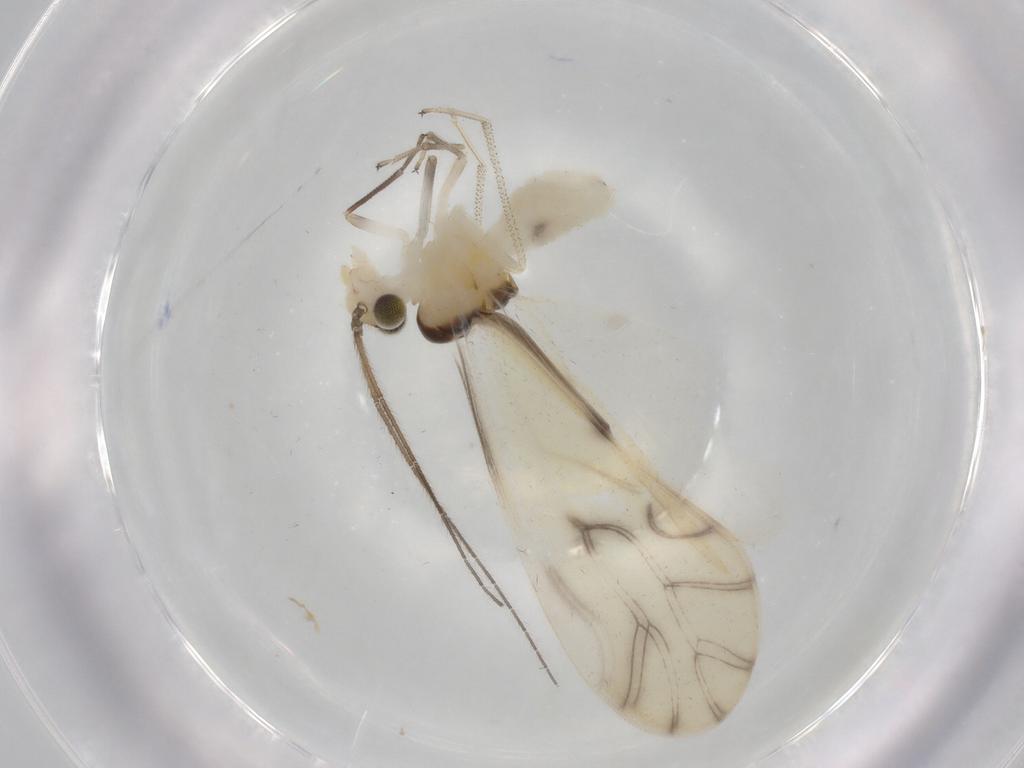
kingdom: Animalia
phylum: Arthropoda
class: Insecta
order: Psocodea
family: Caeciliusidae
